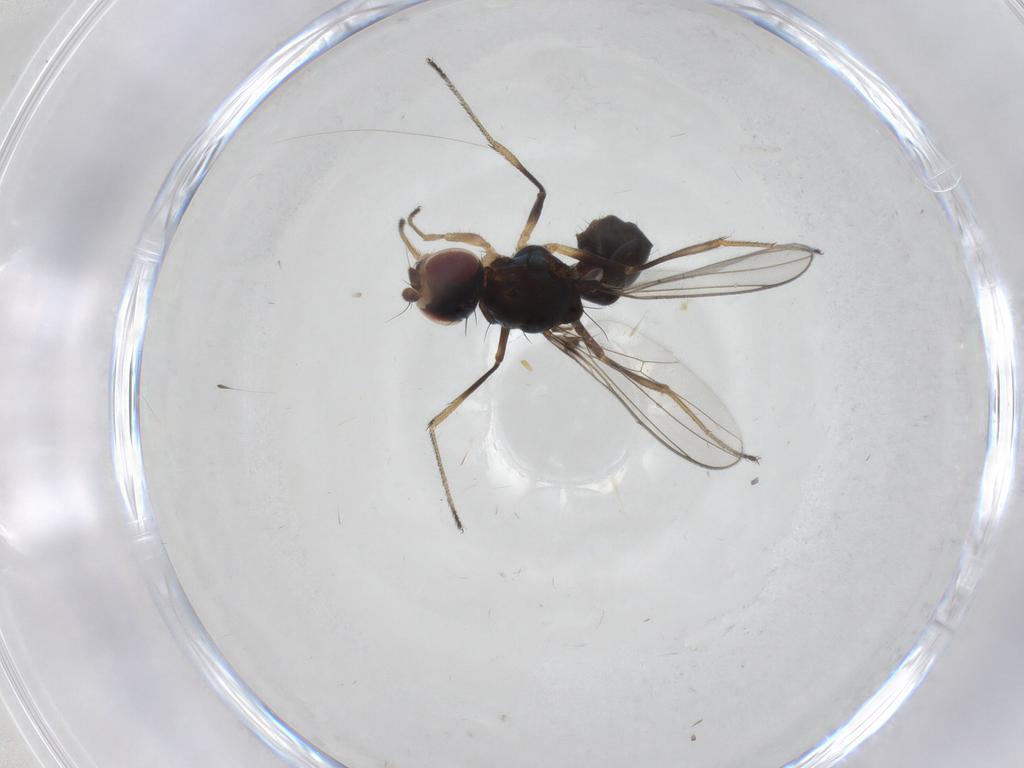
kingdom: Animalia
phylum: Arthropoda
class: Insecta
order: Diptera
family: Sepsidae
